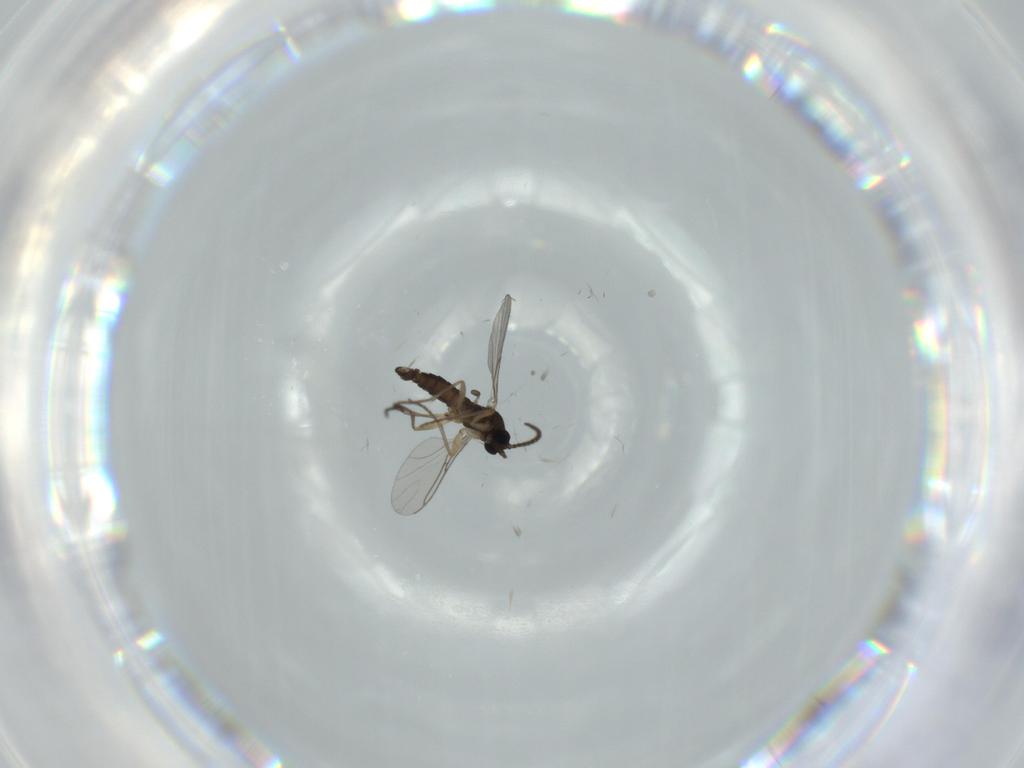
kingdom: Animalia
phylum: Arthropoda
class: Insecta
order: Diptera
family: Sciaridae
